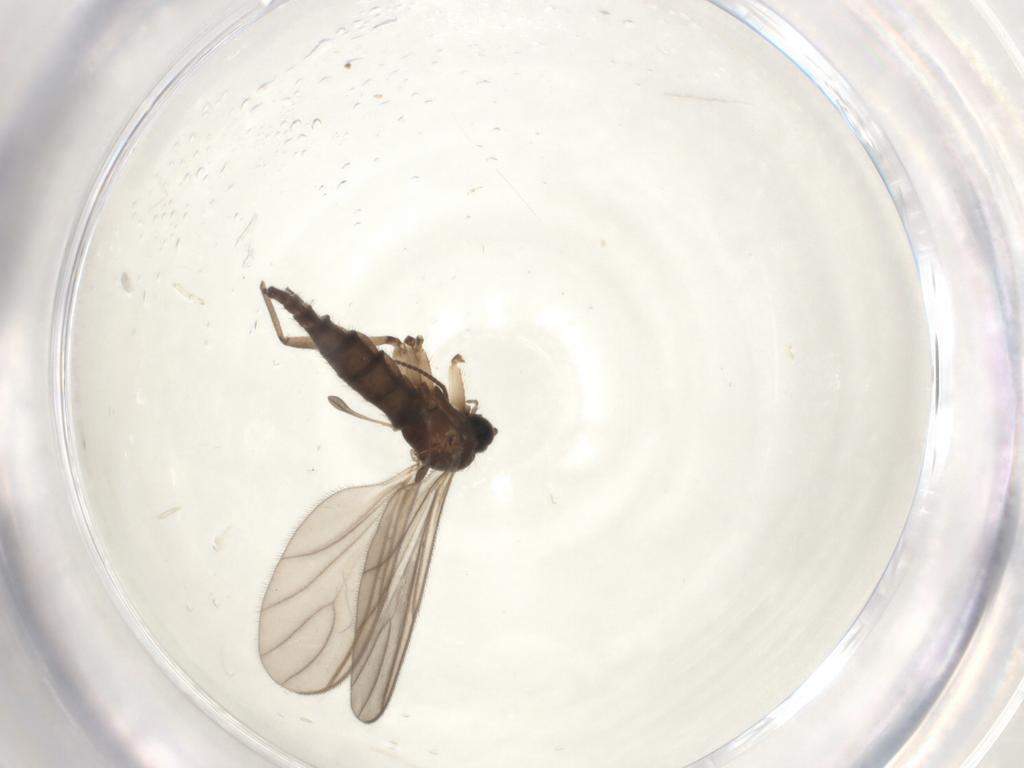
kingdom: Animalia
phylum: Arthropoda
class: Insecta
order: Diptera
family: Sciaridae
